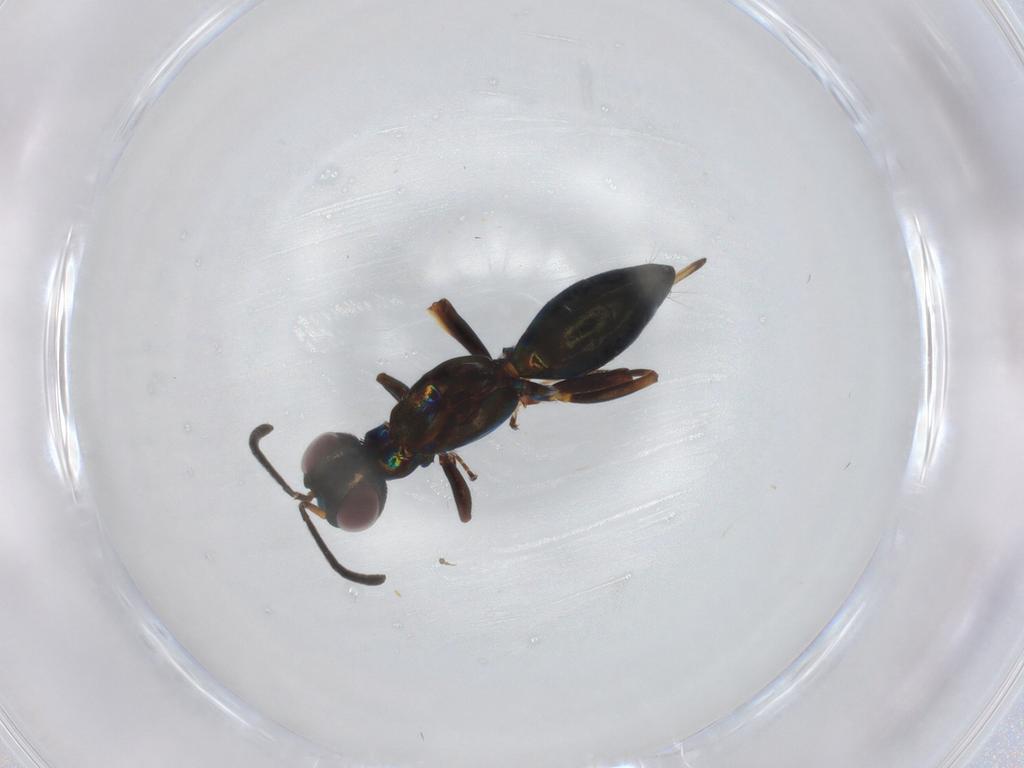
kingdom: Animalia
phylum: Arthropoda
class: Insecta
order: Hymenoptera
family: Eupelmidae
